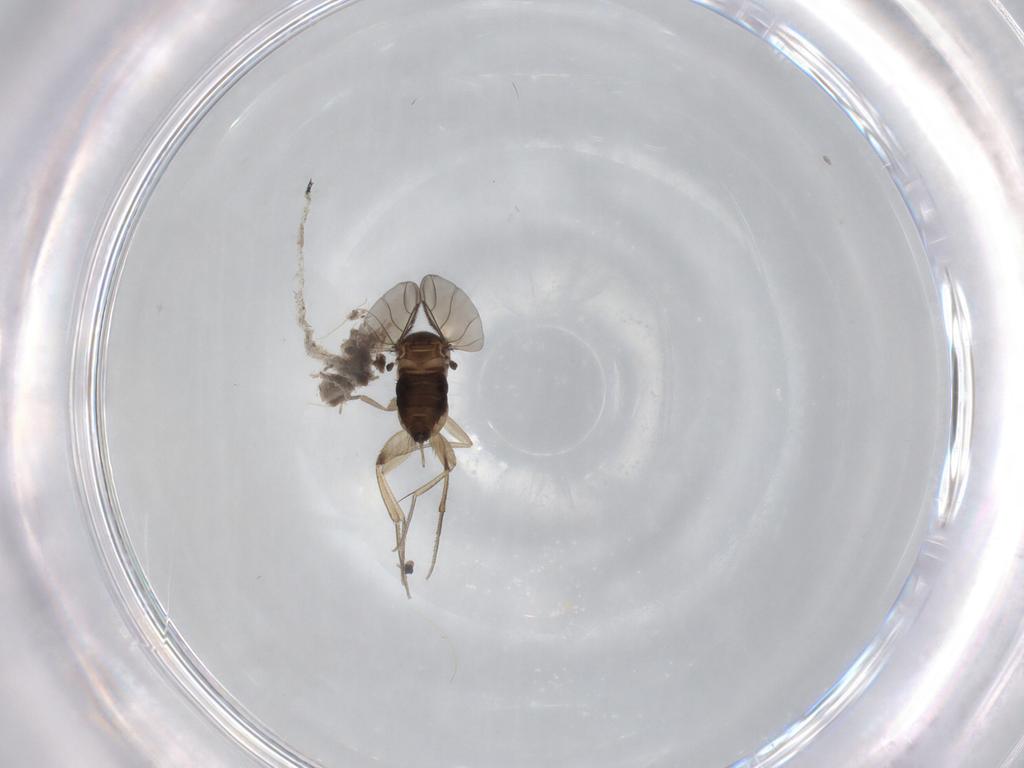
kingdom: Animalia
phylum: Arthropoda
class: Insecta
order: Diptera
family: Phoridae
